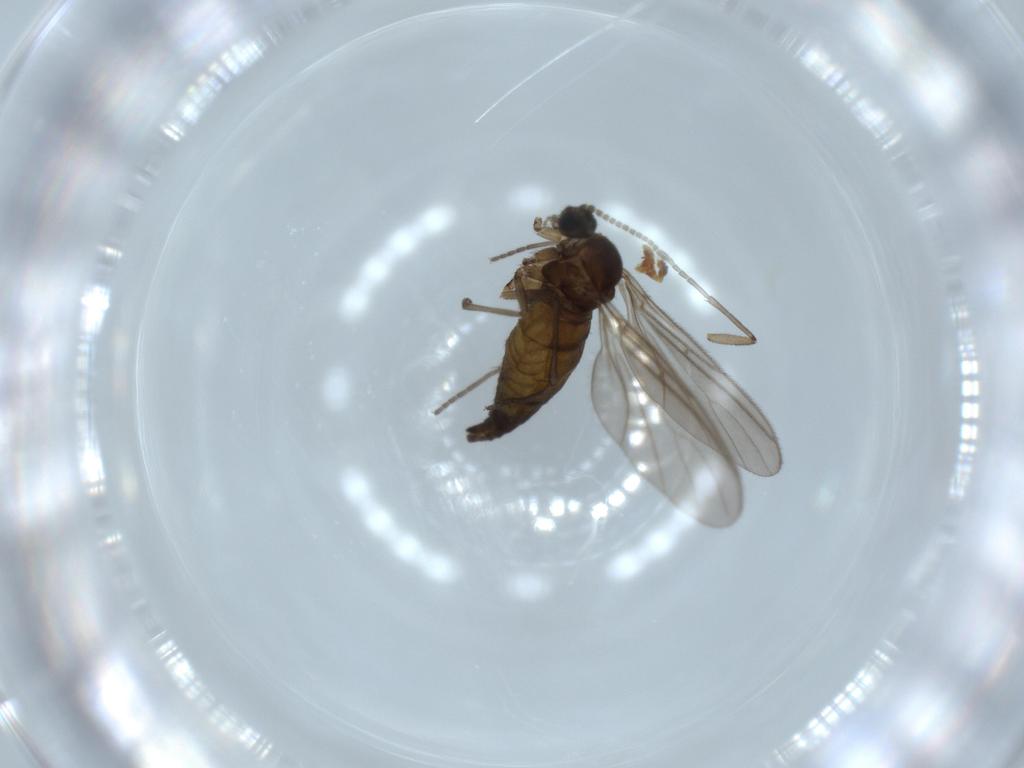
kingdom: Animalia
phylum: Arthropoda
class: Insecta
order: Diptera
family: Sciaridae
